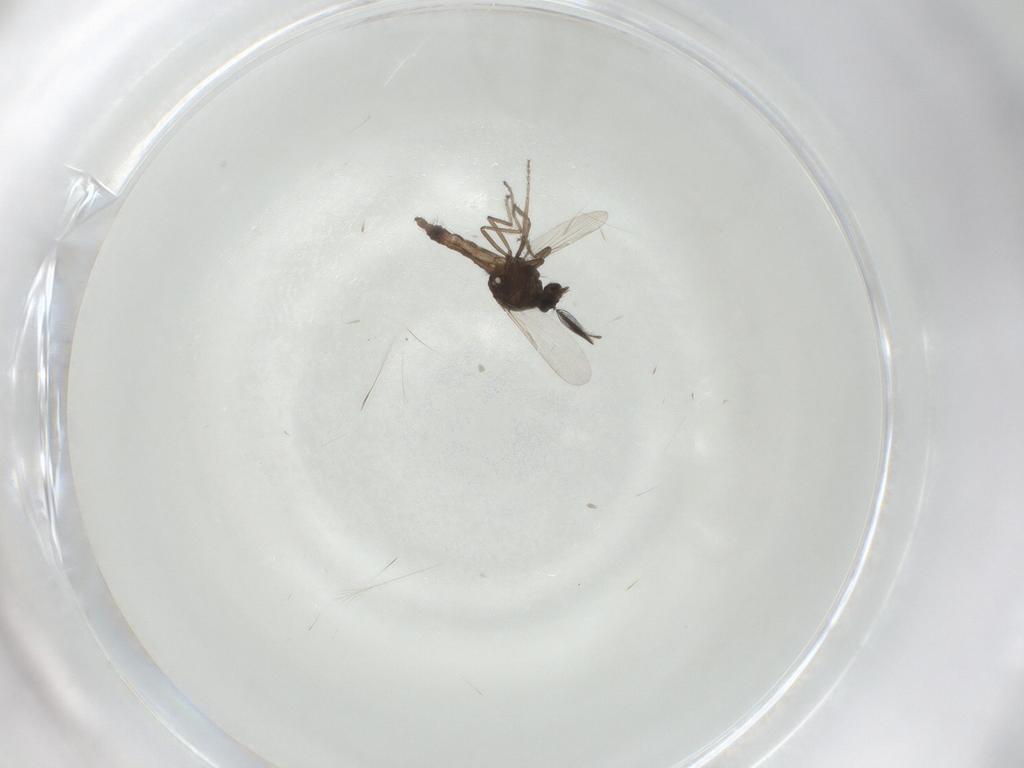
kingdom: Animalia
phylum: Arthropoda
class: Insecta
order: Diptera
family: Ceratopogonidae
